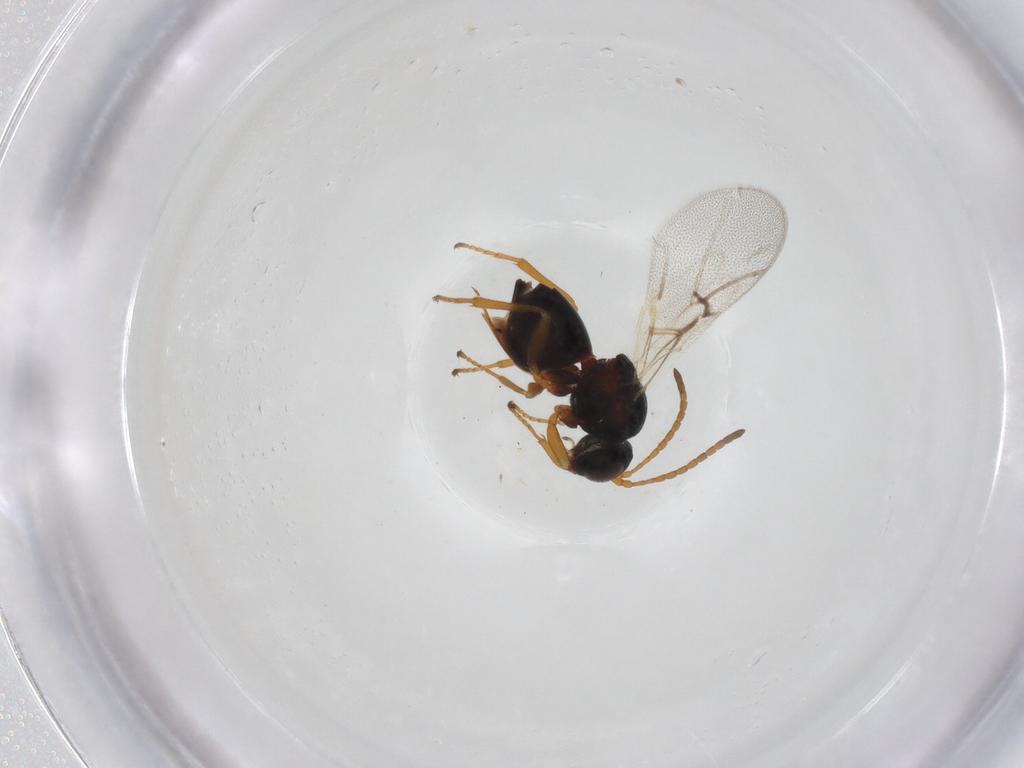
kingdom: Animalia
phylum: Arthropoda
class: Insecta
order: Hymenoptera
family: Cynipidae
